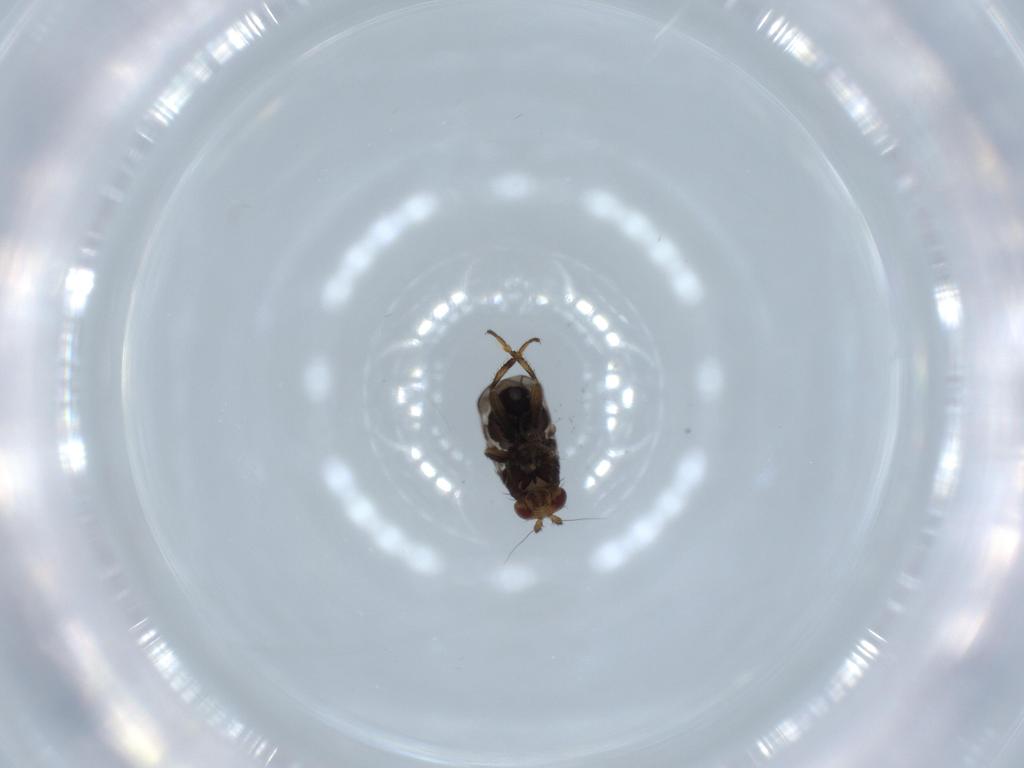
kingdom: Animalia
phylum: Arthropoda
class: Insecta
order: Diptera
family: Sphaeroceridae
